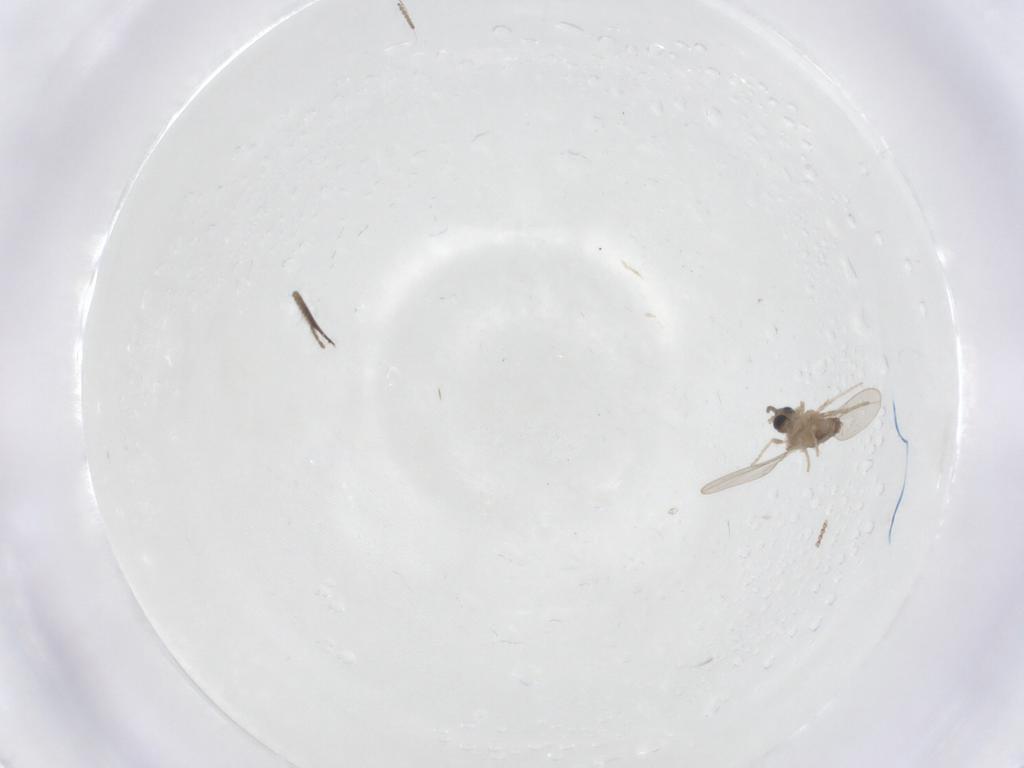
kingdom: Animalia
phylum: Arthropoda
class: Insecta
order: Diptera
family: Cecidomyiidae
